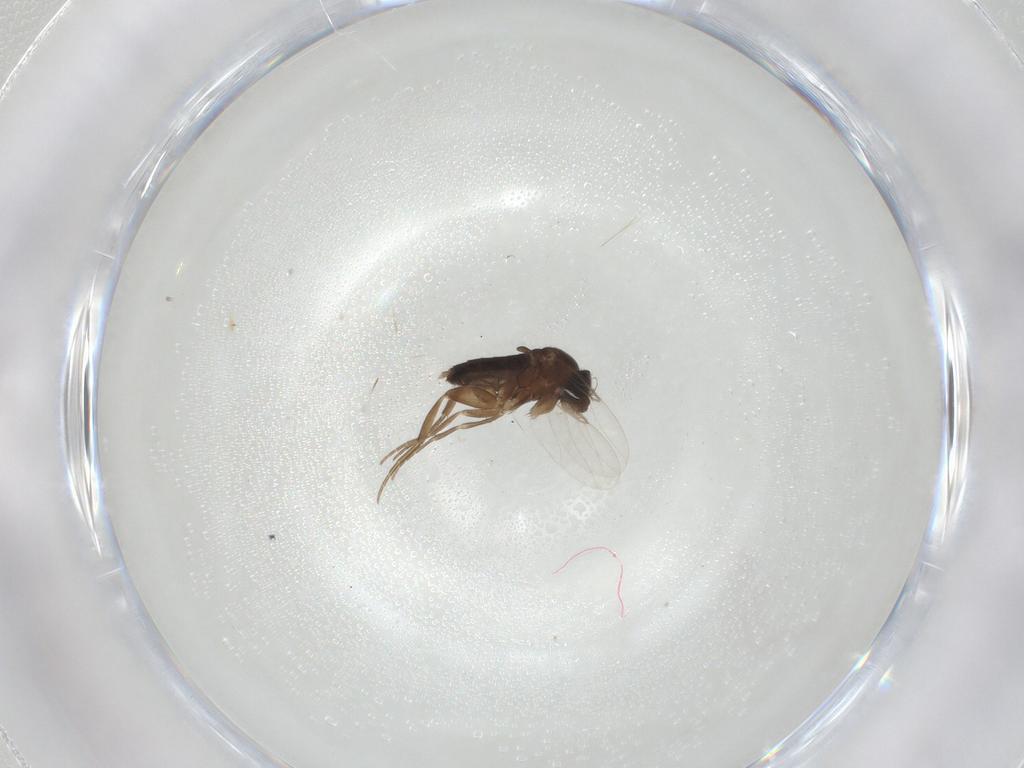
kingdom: Animalia
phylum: Arthropoda
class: Insecta
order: Diptera
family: Phoridae
